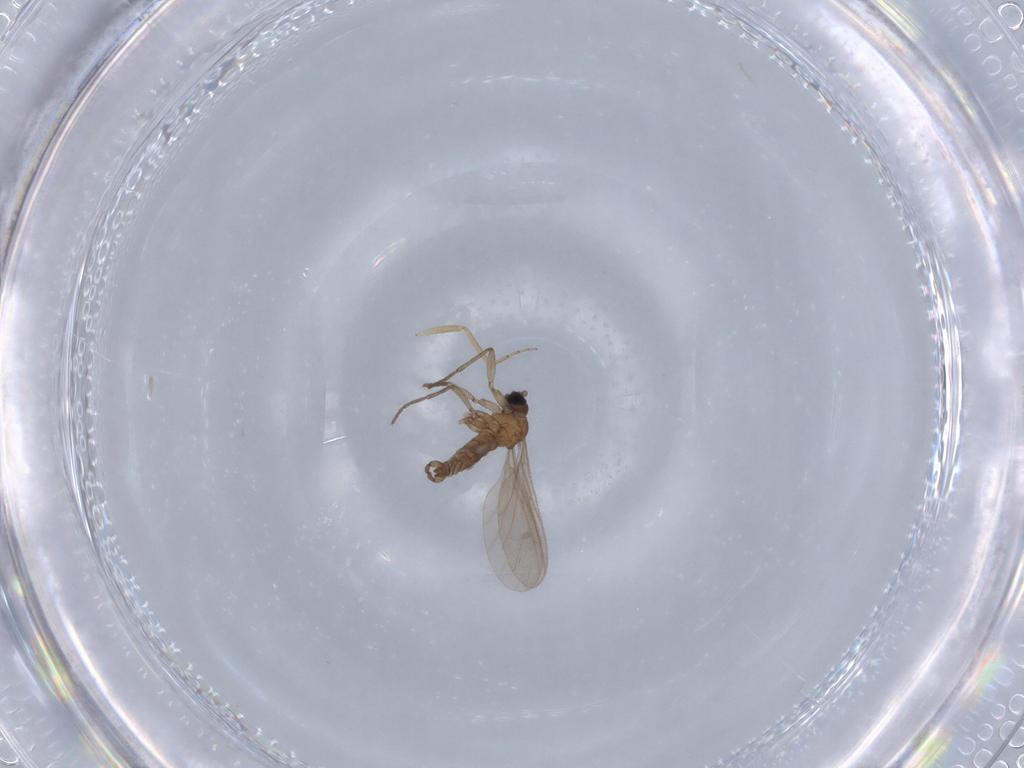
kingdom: Animalia
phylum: Arthropoda
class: Insecta
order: Diptera
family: Sciaridae
